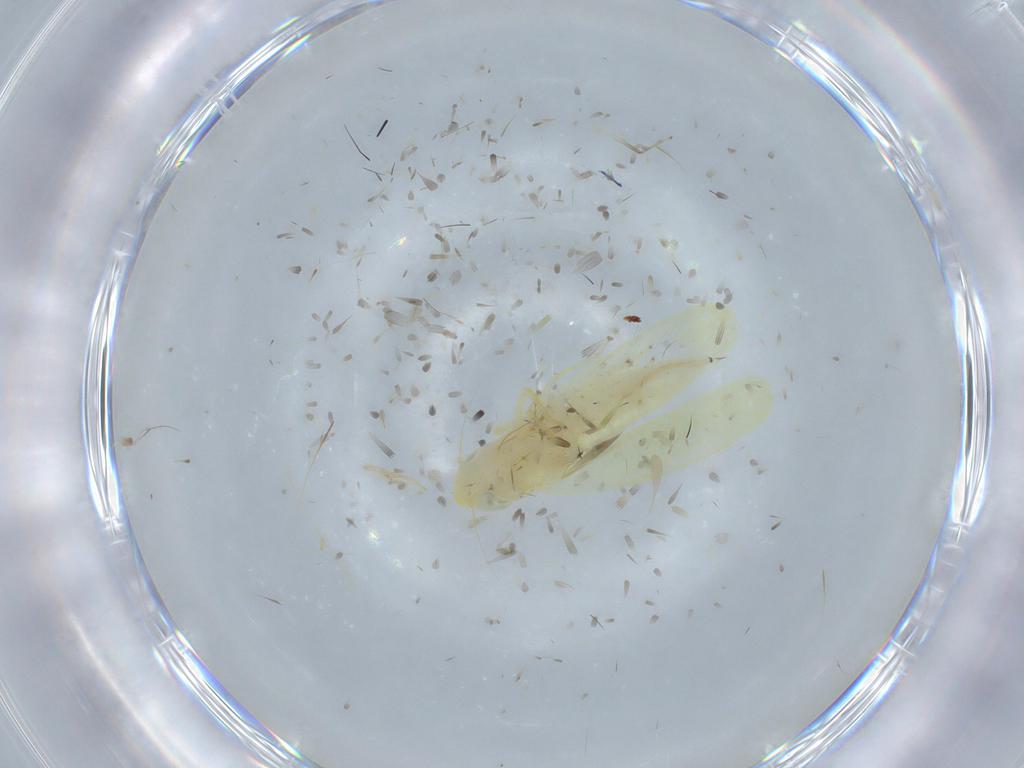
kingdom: Animalia
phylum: Arthropoda
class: Insecta
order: Hemiptera
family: Cicadellidae
